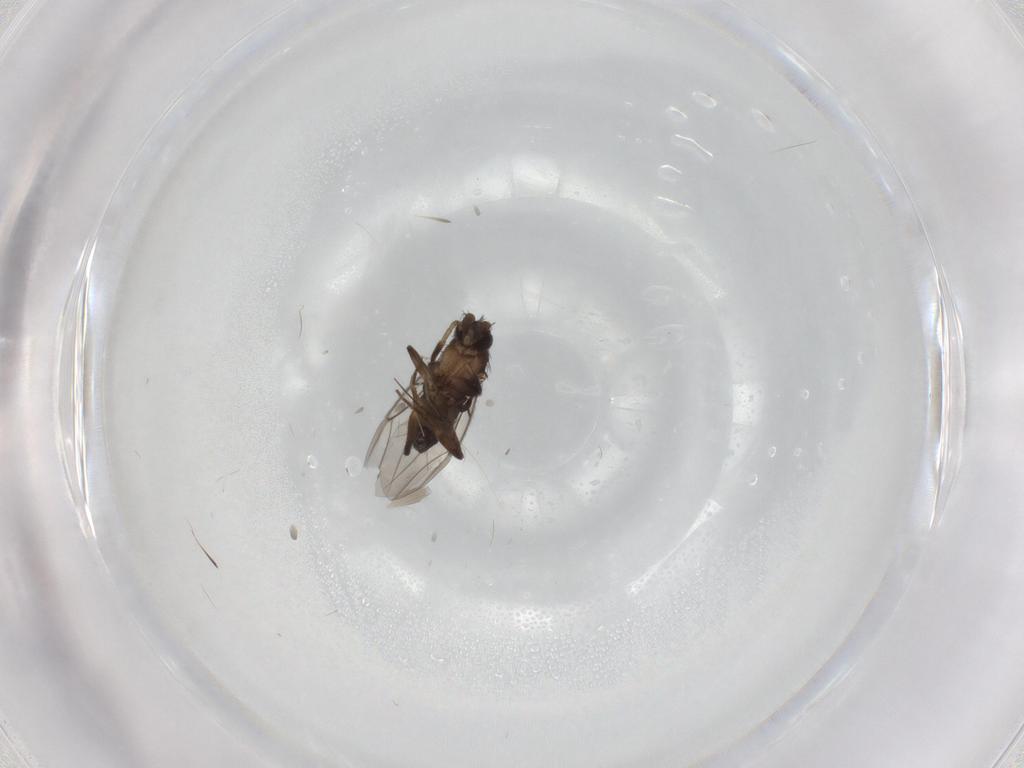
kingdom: Animalia
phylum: Arthropoda
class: Insecta
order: Diptera
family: Phoridae
